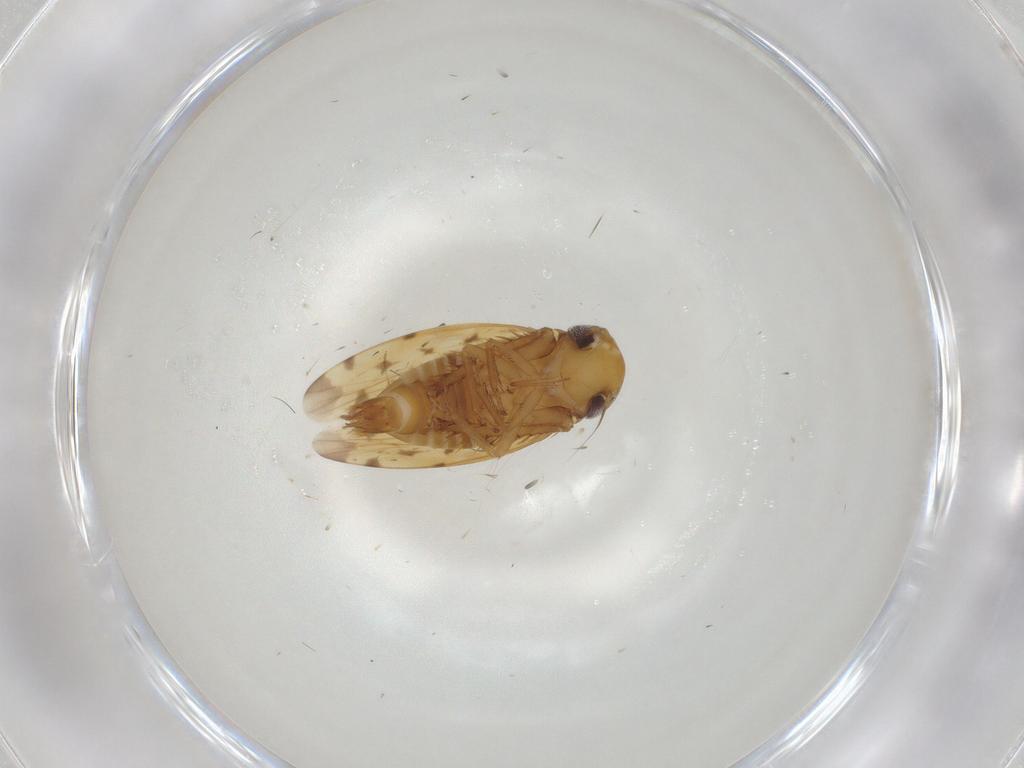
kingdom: Animalia
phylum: Arthropoda
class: Insecta
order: Hemiptera
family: Cicadellidae
